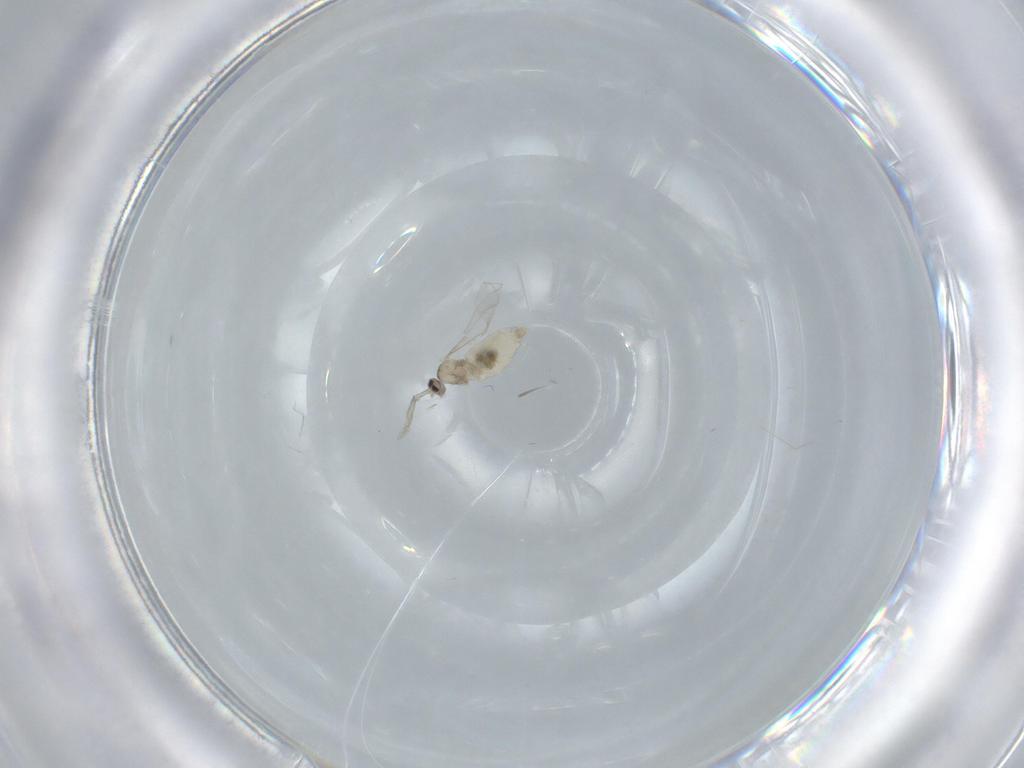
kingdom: Animalia
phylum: Arthropoda
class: Insecta
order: Diptera
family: Cecidomyiidae
